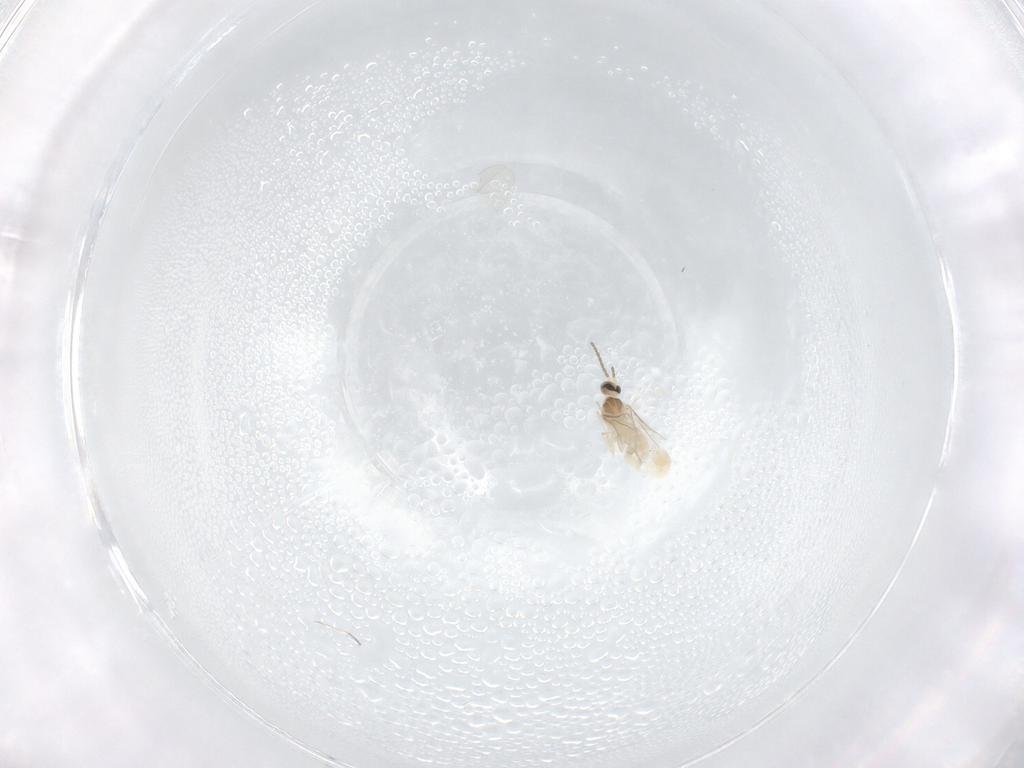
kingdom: Animalia
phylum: Arthropoda
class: Insecta
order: Diptera
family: Cecidomyiidae
